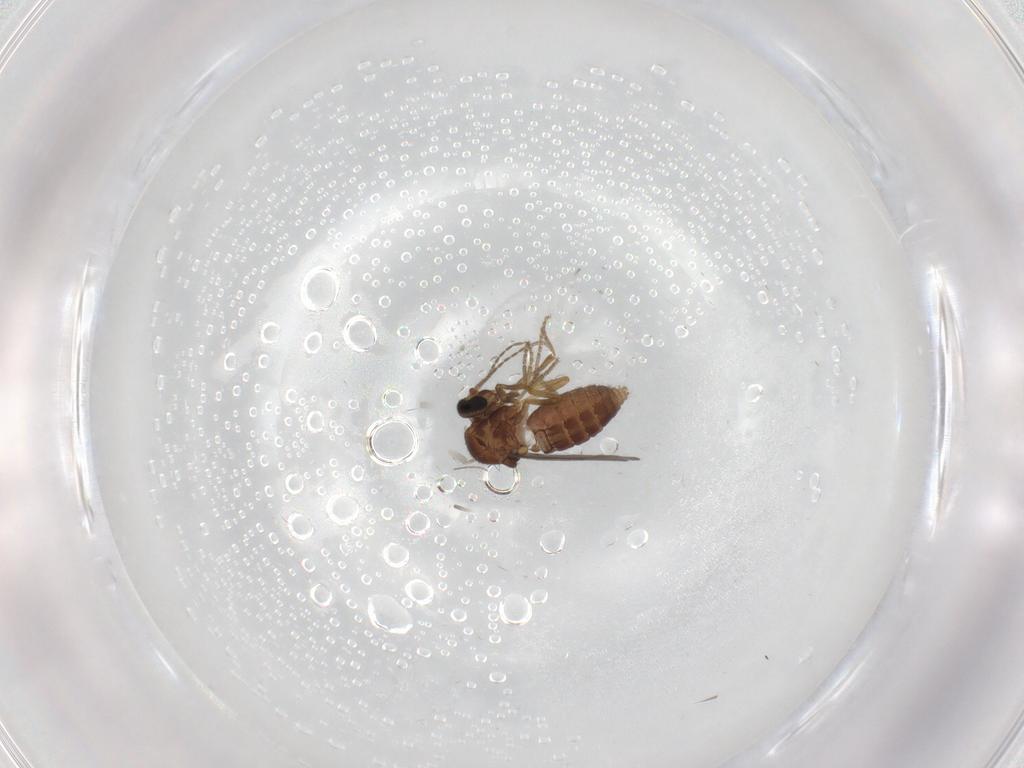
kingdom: Animalia
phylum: Arthropoda
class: Insecta
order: Diptera
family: Ceratopogonidae
